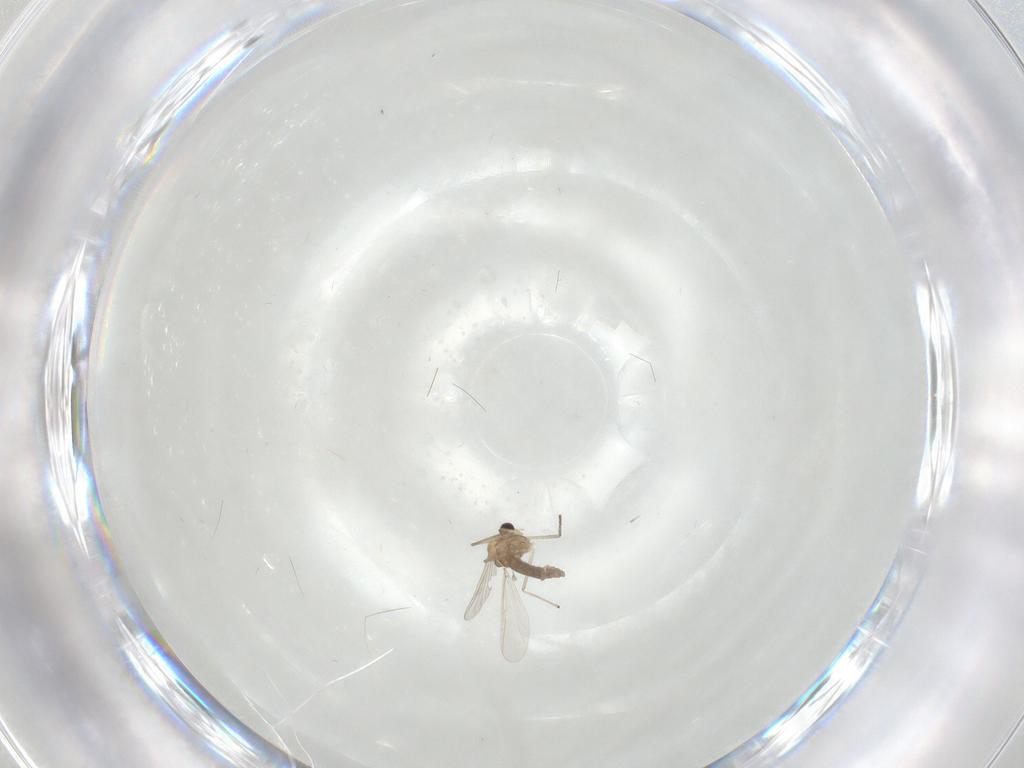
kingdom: Animalia
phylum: Arthropoda
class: Insecta
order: Diptera
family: Chironomidae
